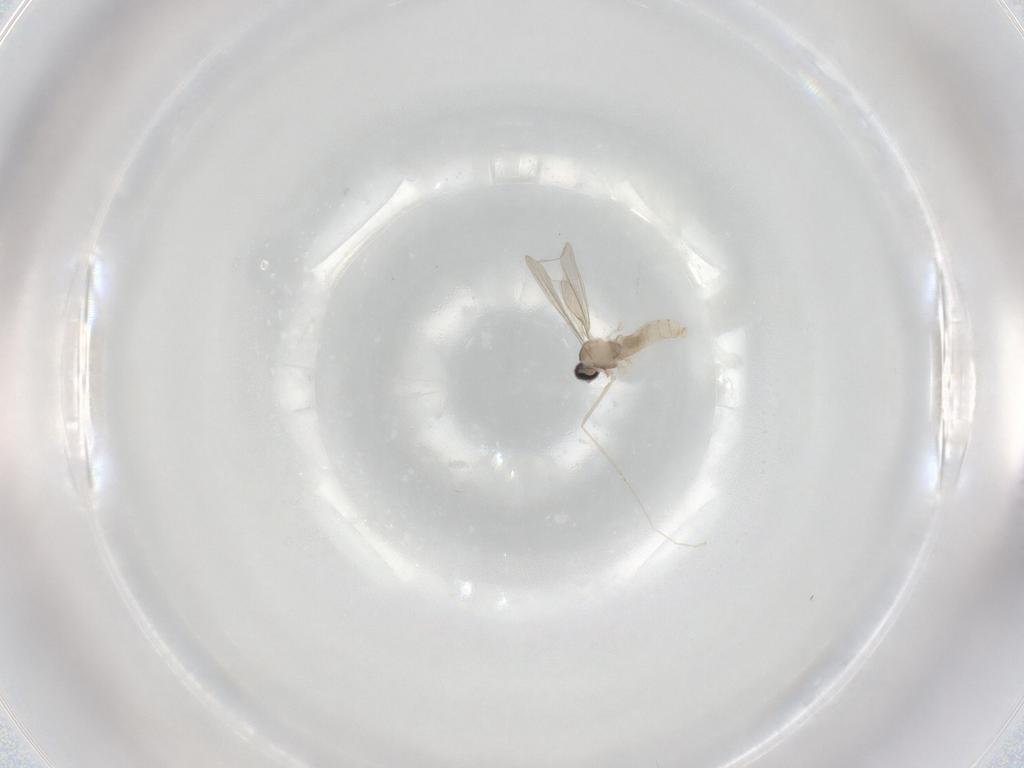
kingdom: Animalia
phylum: Arthropoda
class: Insecta
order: Diptera
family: Cecidomyiidae
